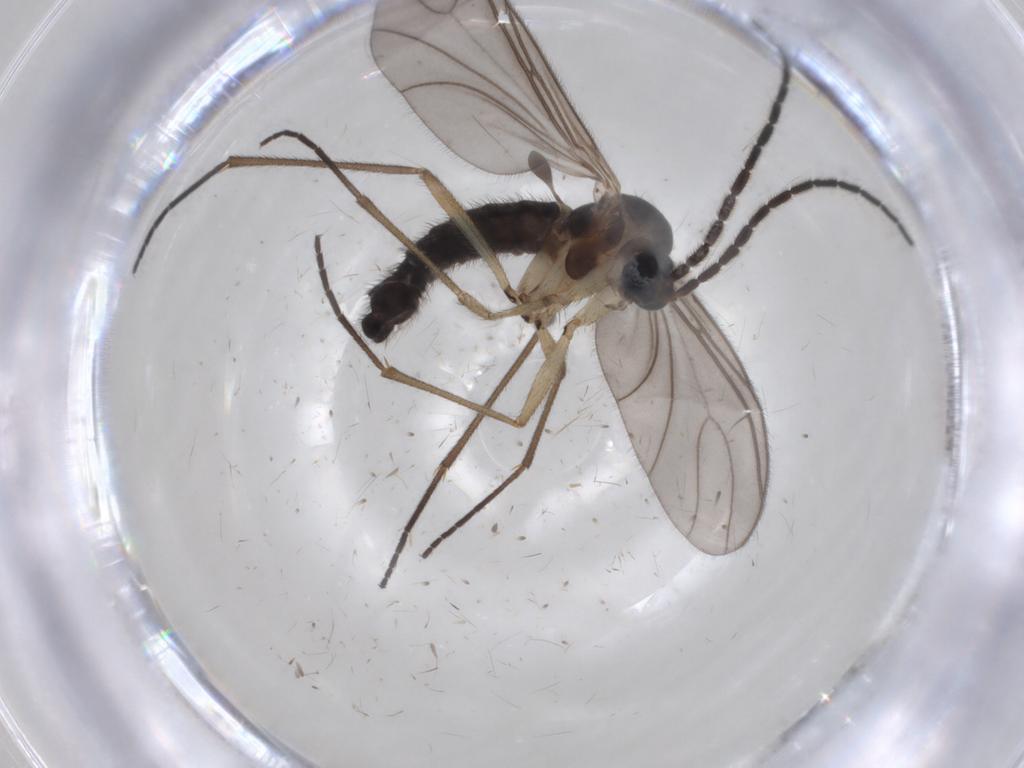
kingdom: Animalia
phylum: Arthropoda
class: Insecta
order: Diptera
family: Sciaridae
